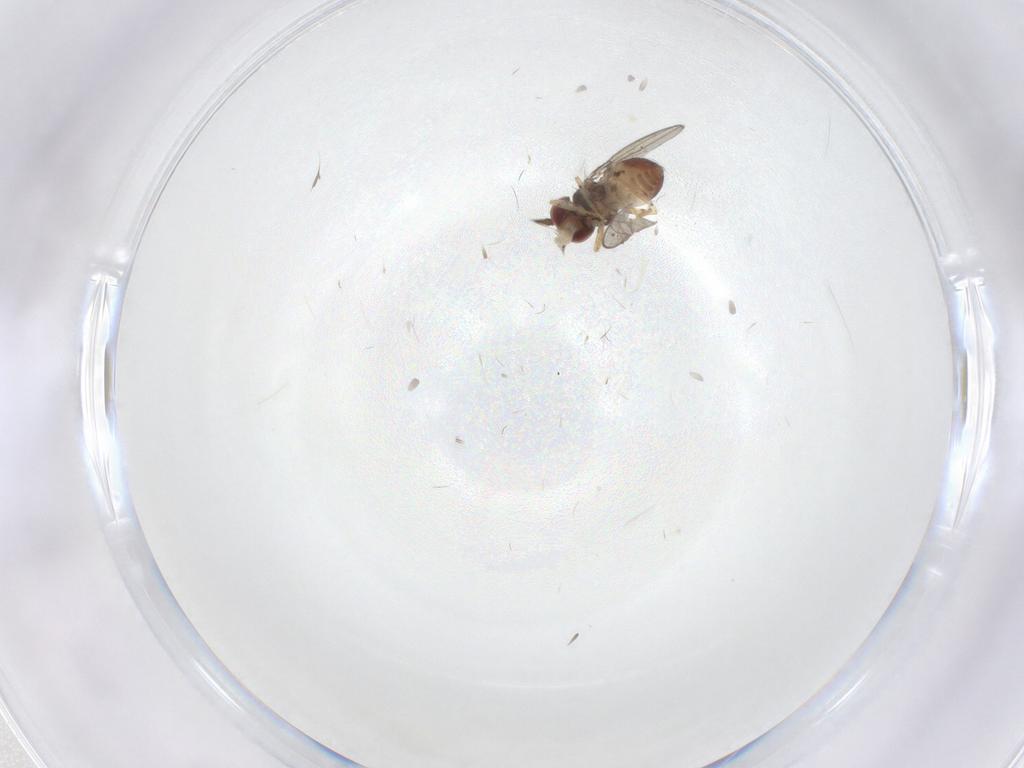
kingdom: Animalia
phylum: Arthropoda
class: Insecta
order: Diptera
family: Asteiidae
